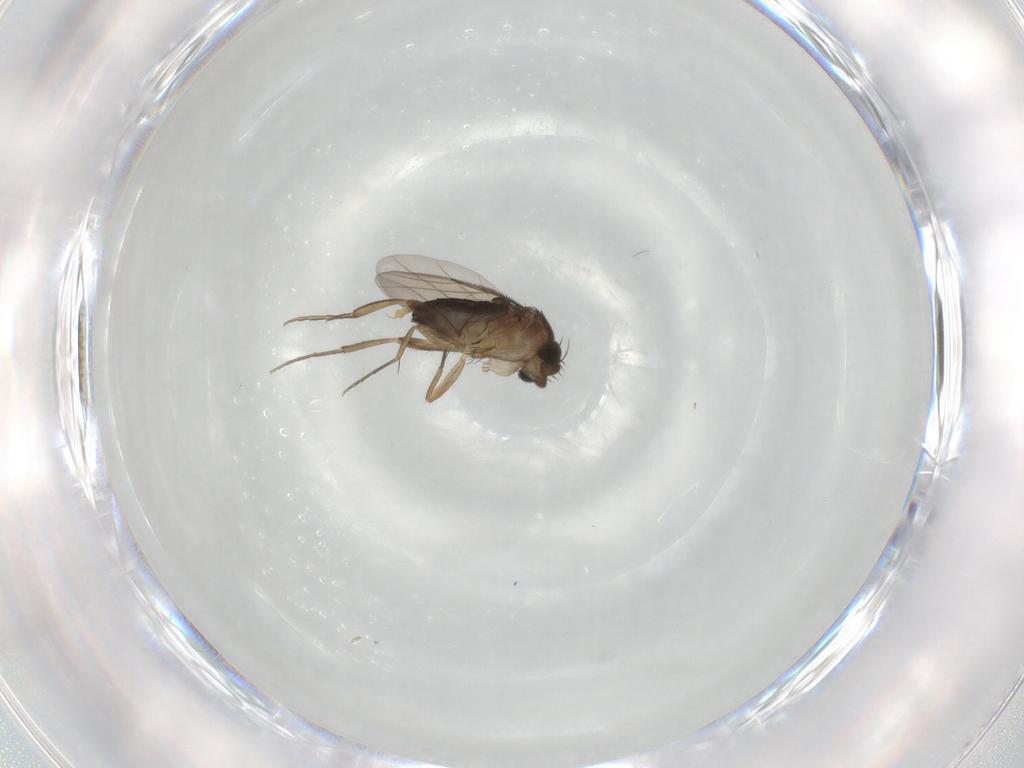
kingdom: Animalia
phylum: Arthropoda
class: Insecta
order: Diptera
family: Phoridae
